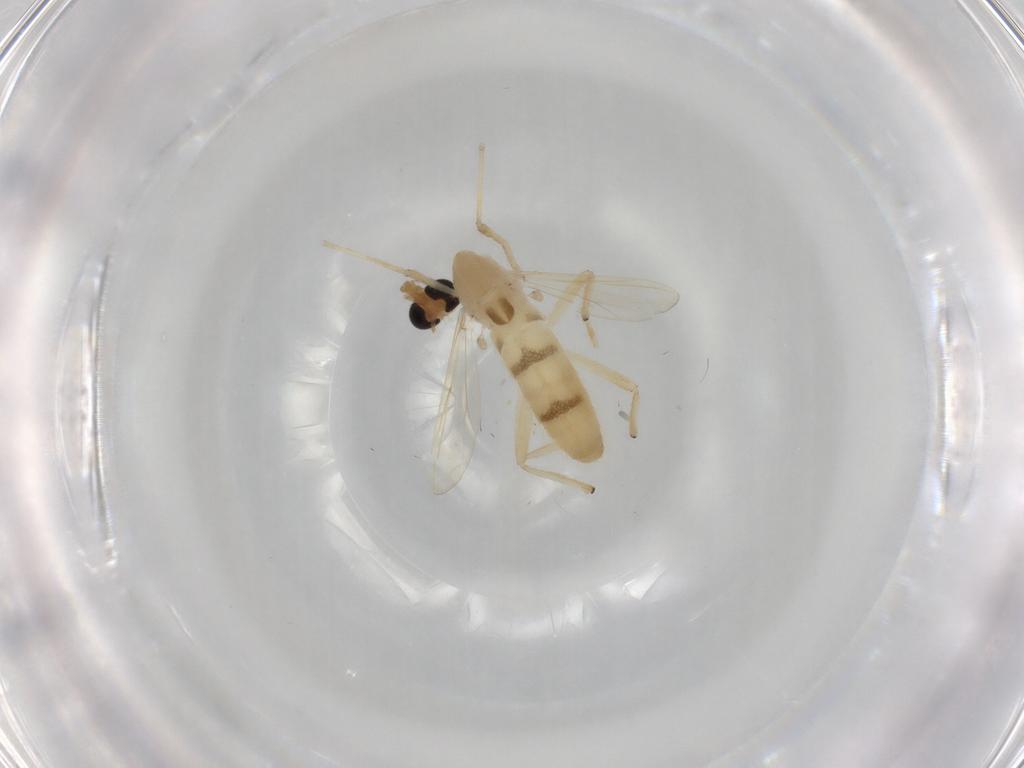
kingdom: Animalia
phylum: Arthropoda
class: Insecta
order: Diptera
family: Chironomidae
